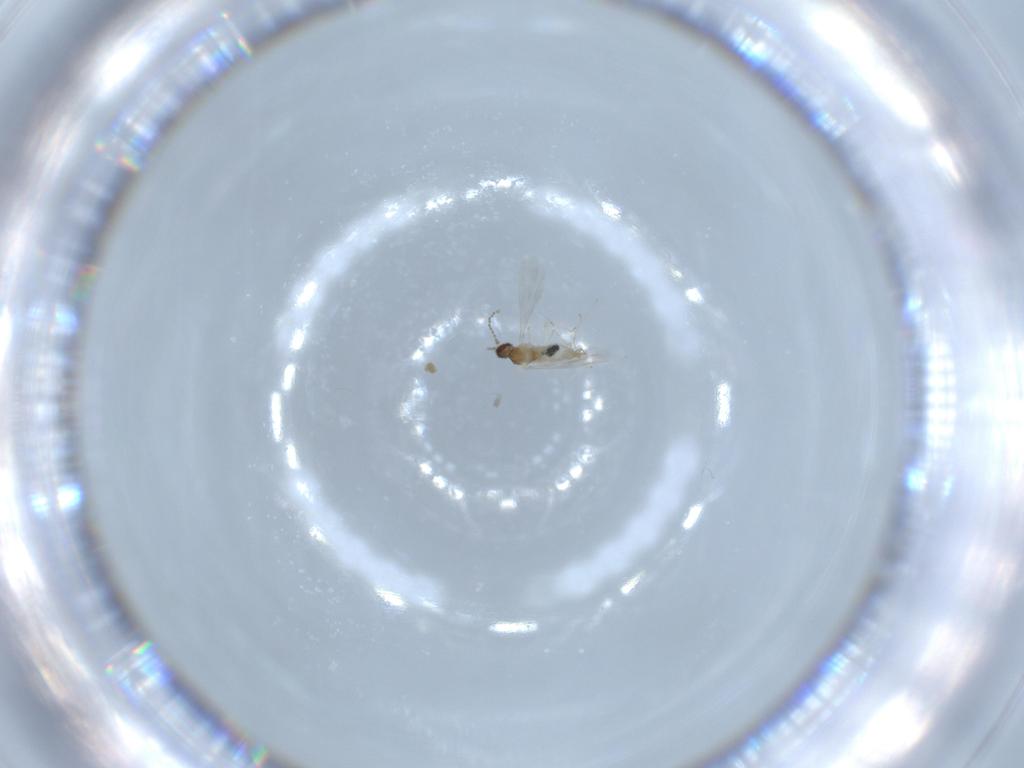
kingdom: Animalia
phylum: Arthropoda
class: Insecta
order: Diptera
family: Cecidomyiidae
